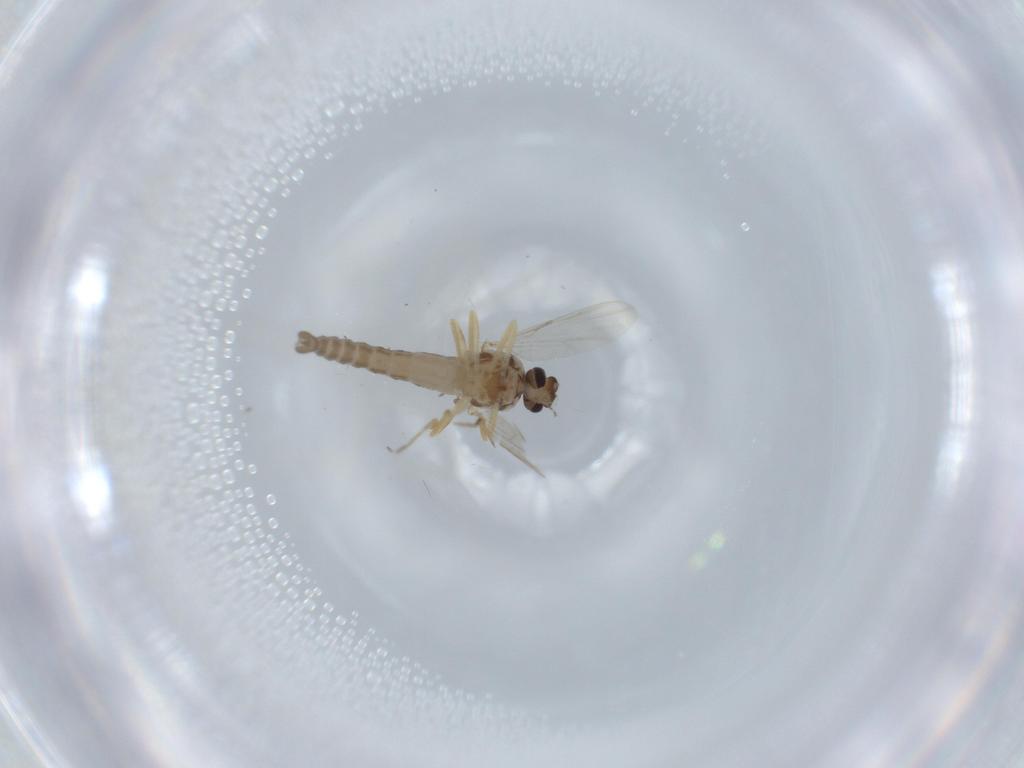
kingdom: Animalia
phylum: Arthropoda
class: Insecta
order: Diptera
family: Ceratopogonidae
